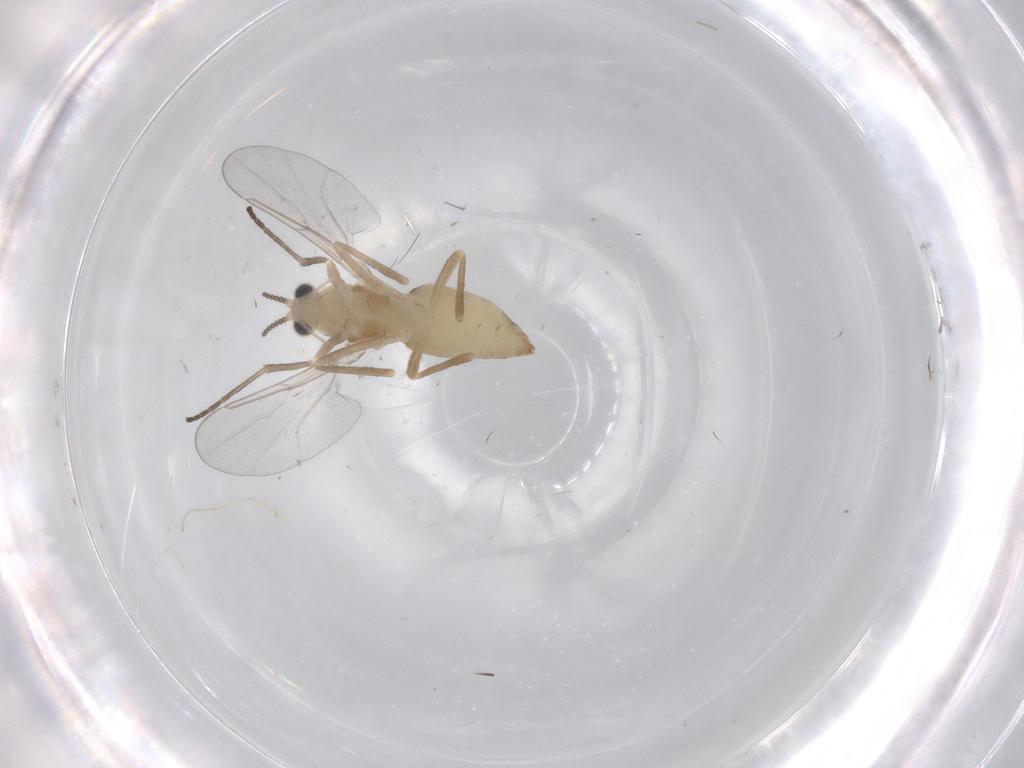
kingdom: Animalia
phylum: Arthropoda
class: Insecta
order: Diptera
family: Cecidomyiidae
